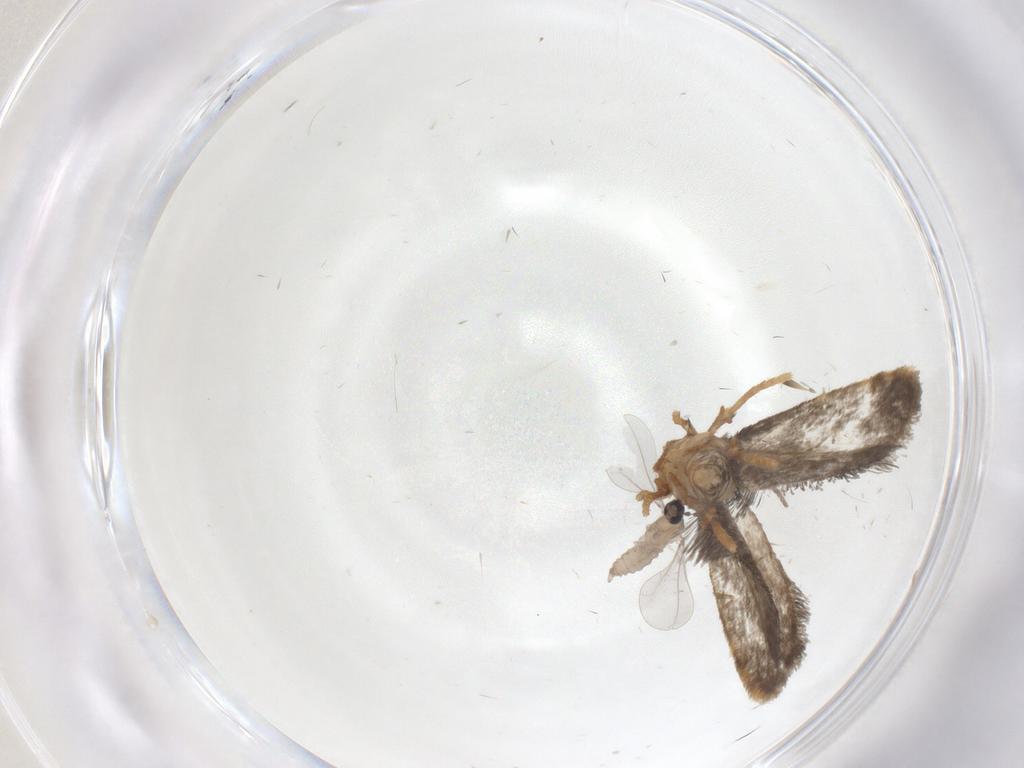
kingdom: Animalia
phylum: Arthropoda
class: Insecta
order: Lepidoptera
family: Psychidae
